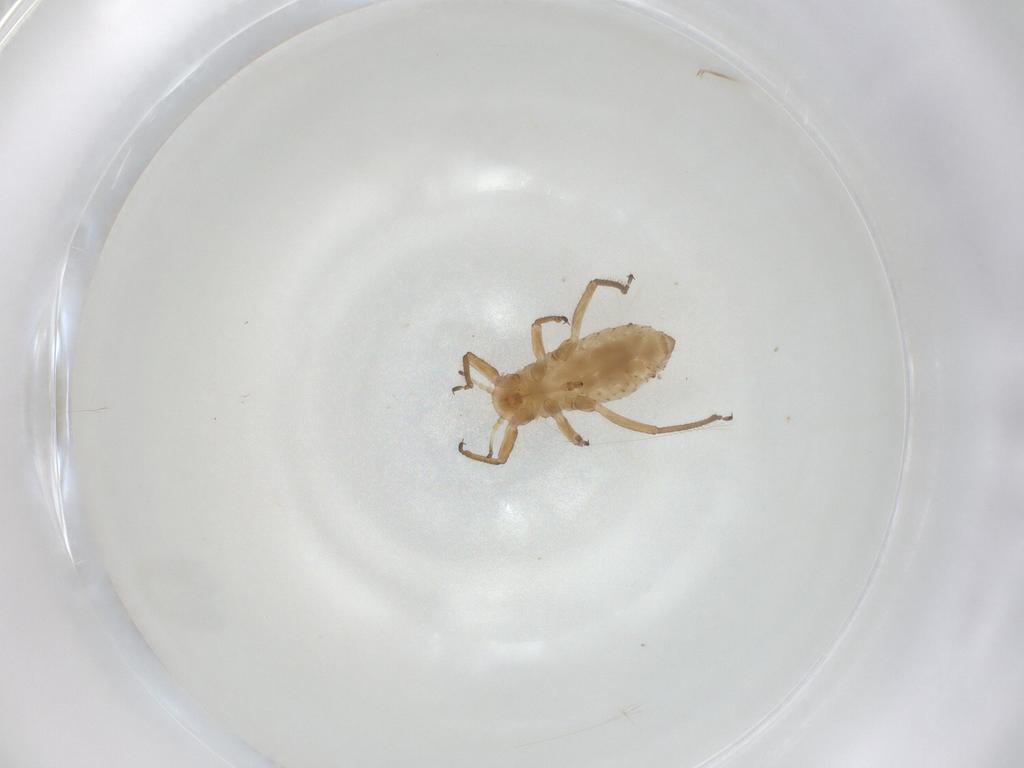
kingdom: Animalia
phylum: Arthropoda
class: Insecta
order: Hemiptera
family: Aphididae
